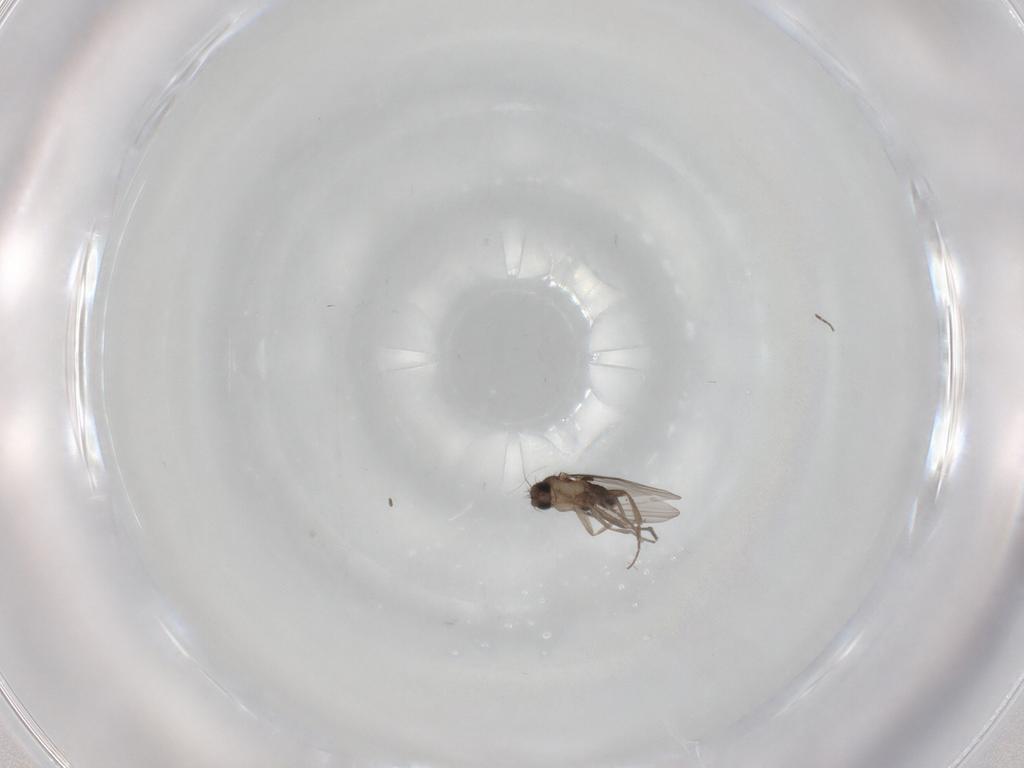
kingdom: Animalia
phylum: Arthropoda
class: Insecta
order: Diptera
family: Phoridae
